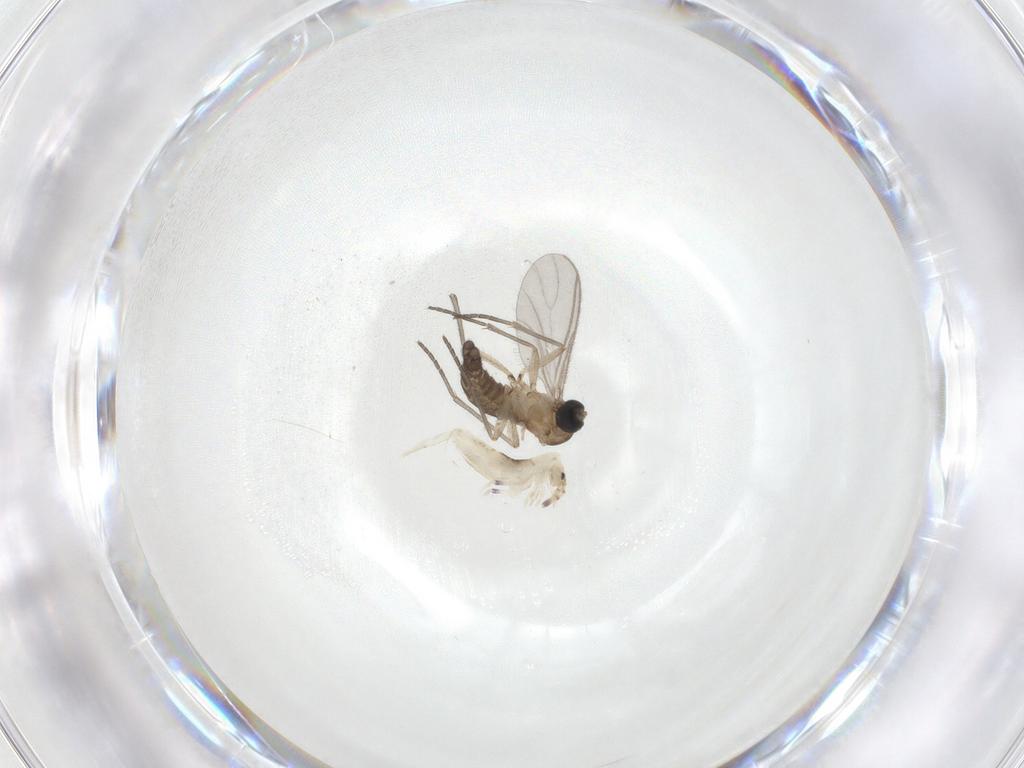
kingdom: Animalia
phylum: Arthropoda
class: Insecta
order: Diptera
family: Sciaridae
